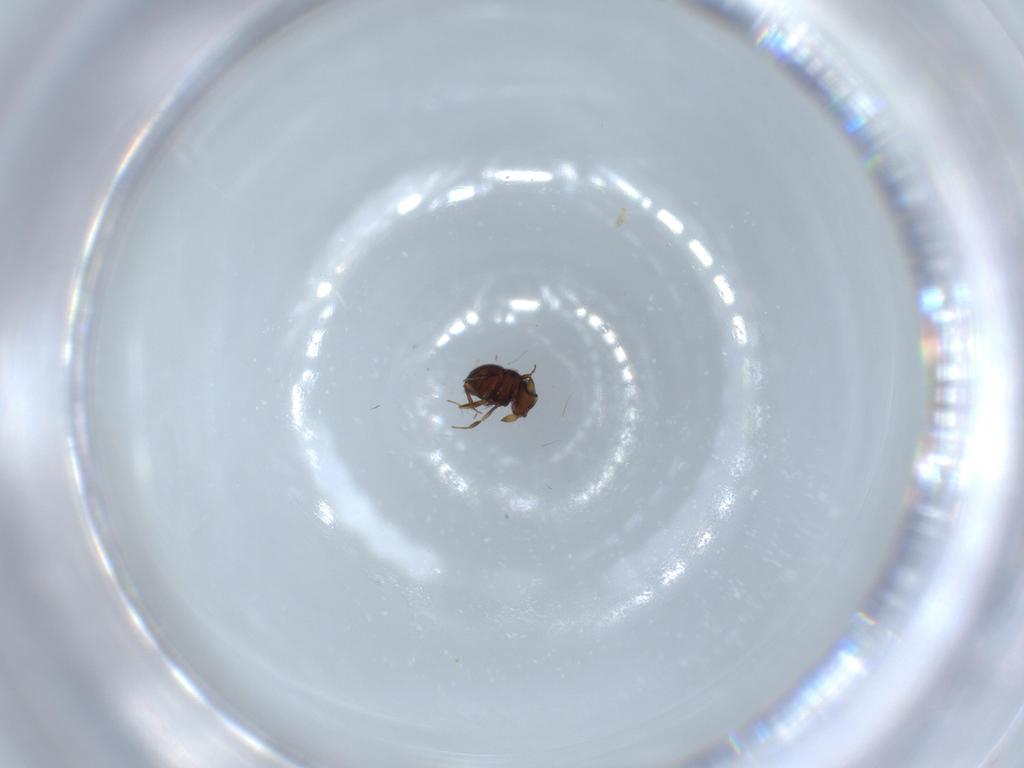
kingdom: Animalia
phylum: Arthropoda
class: Insecta
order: Hymenoptera
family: Scelionidae
